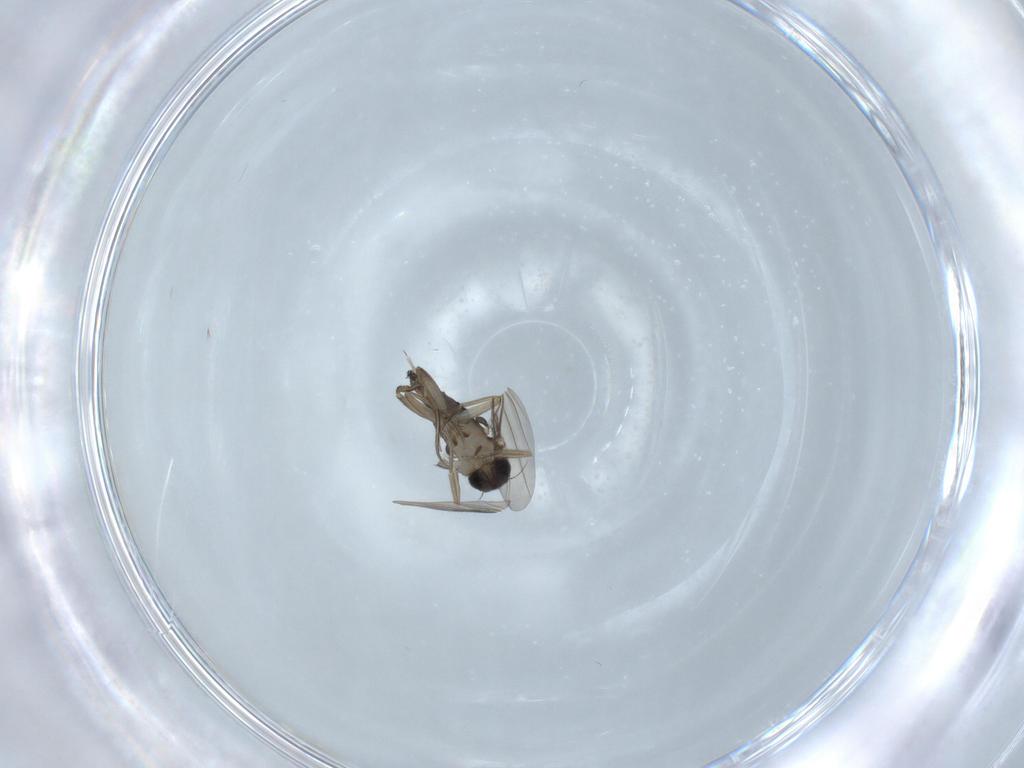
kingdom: Animalia
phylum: Arthropoda
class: Insecta
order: Diptera
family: Phoridae
